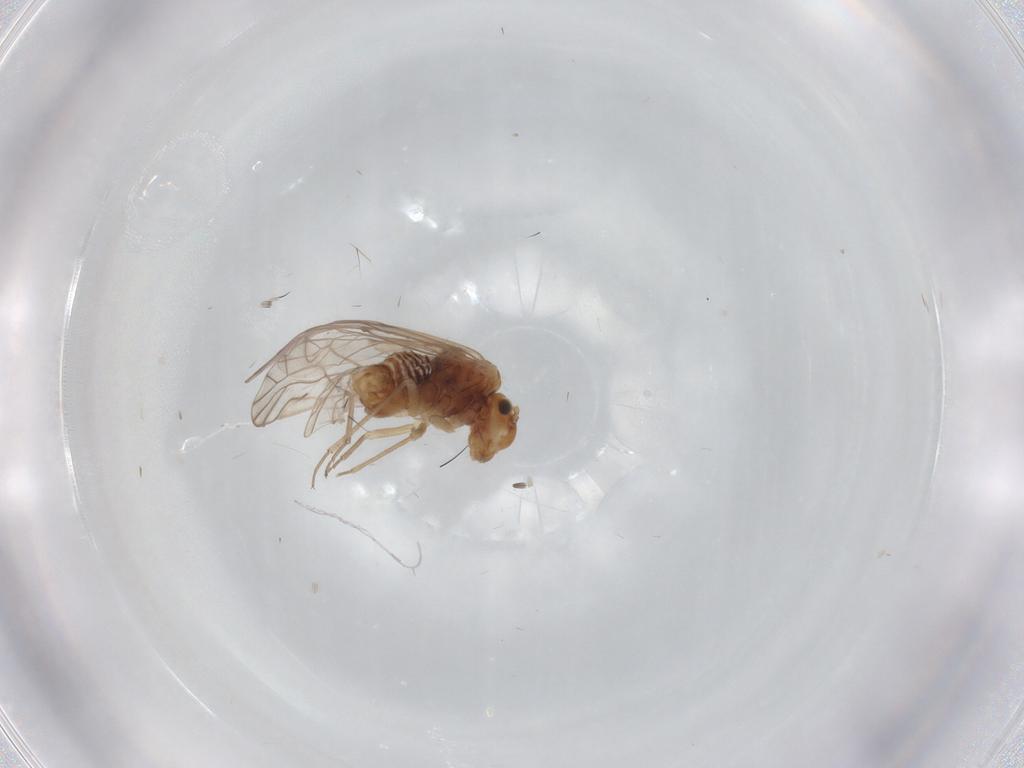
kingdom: Animalia
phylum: Arthropoda
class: Insecta
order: Psocodea
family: Lachesillidae
